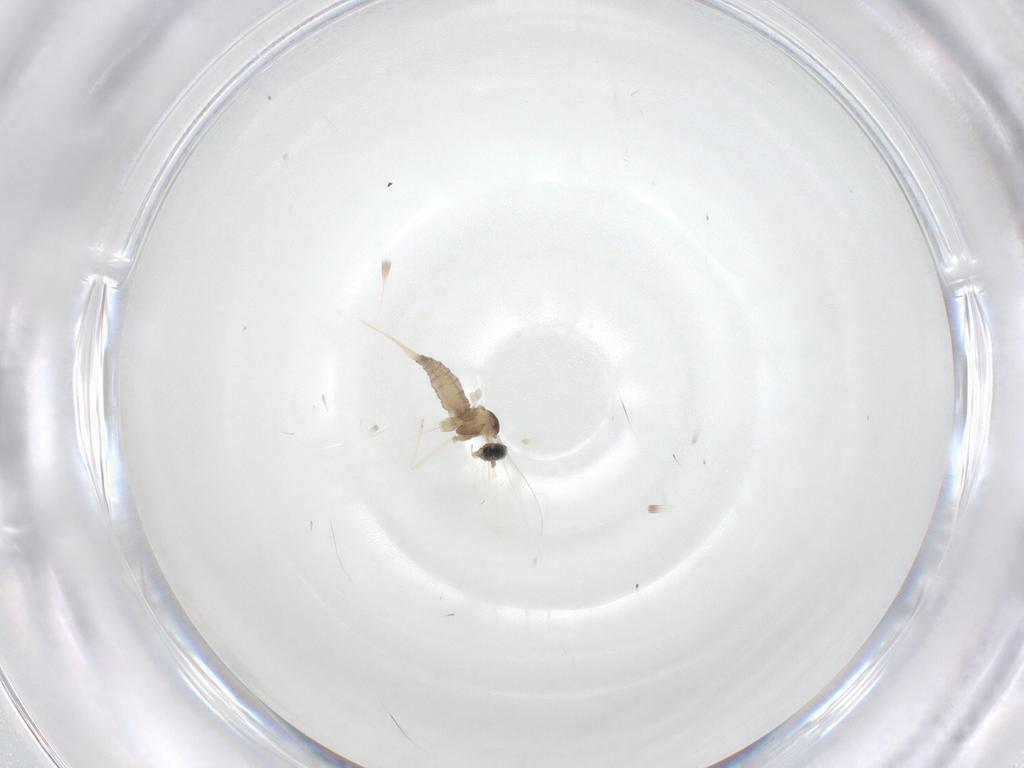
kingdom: Animalia
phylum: Arthropoda
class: Insecta
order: Diptera
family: Cecidomyiidae
